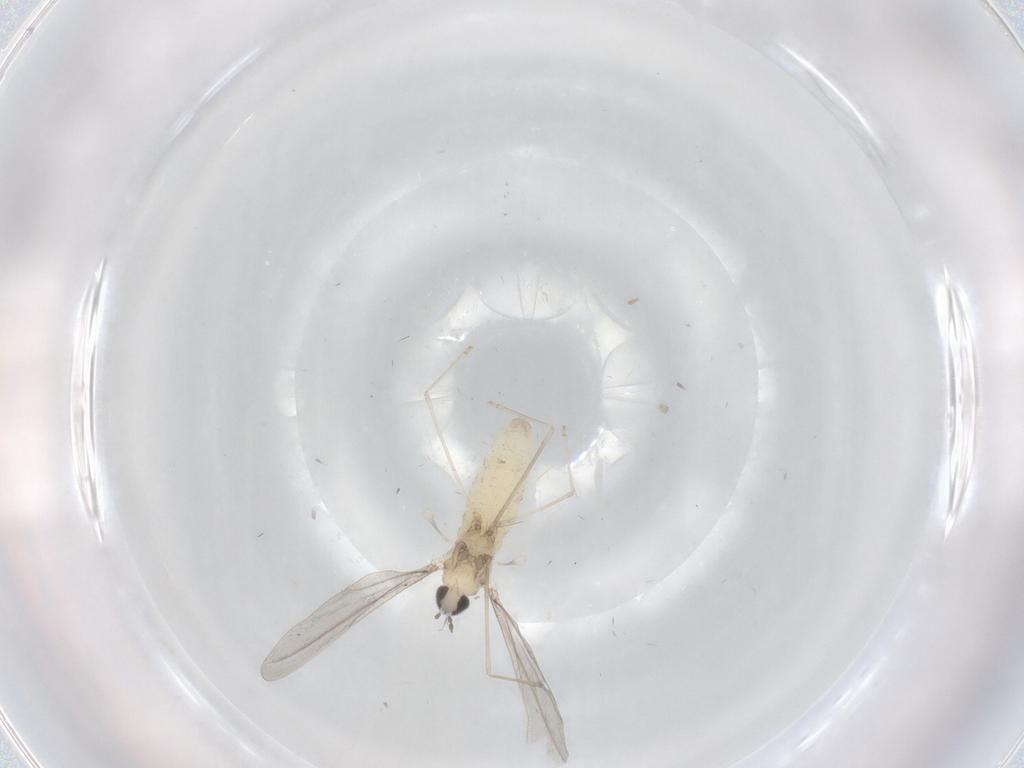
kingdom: Animalia
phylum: Arthropoda
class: Insecta
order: Diptera
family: Cecidomyiidae
